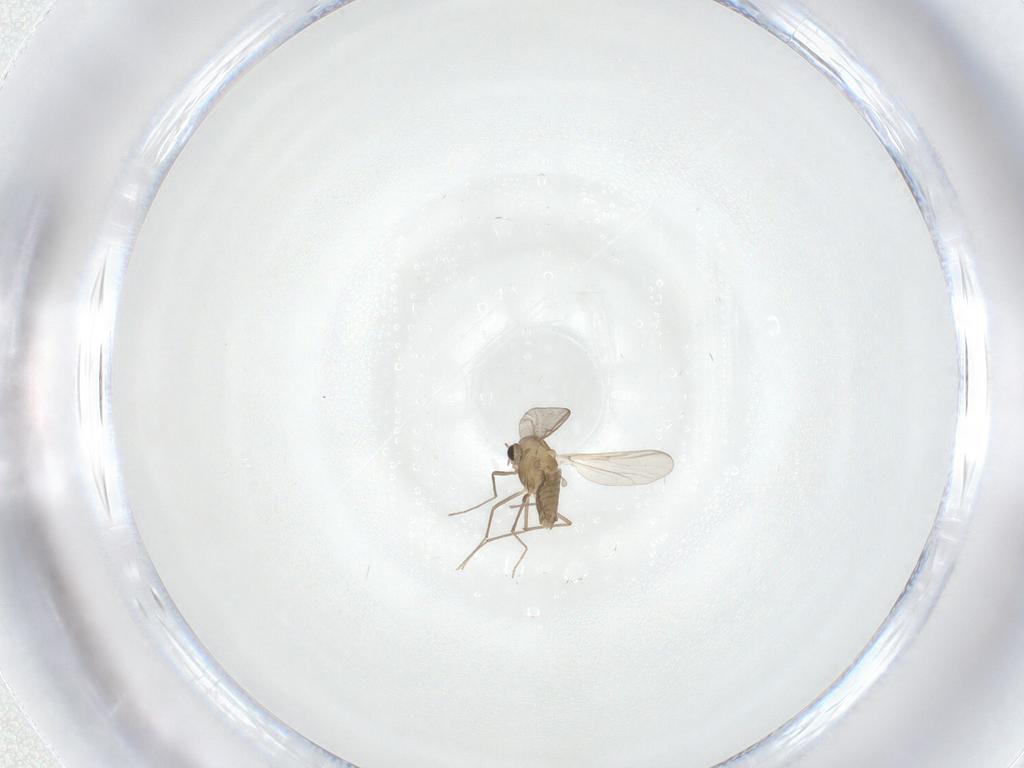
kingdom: Animalia
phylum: Arthropoda
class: Insecta
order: Diptera
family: Chironomidae
